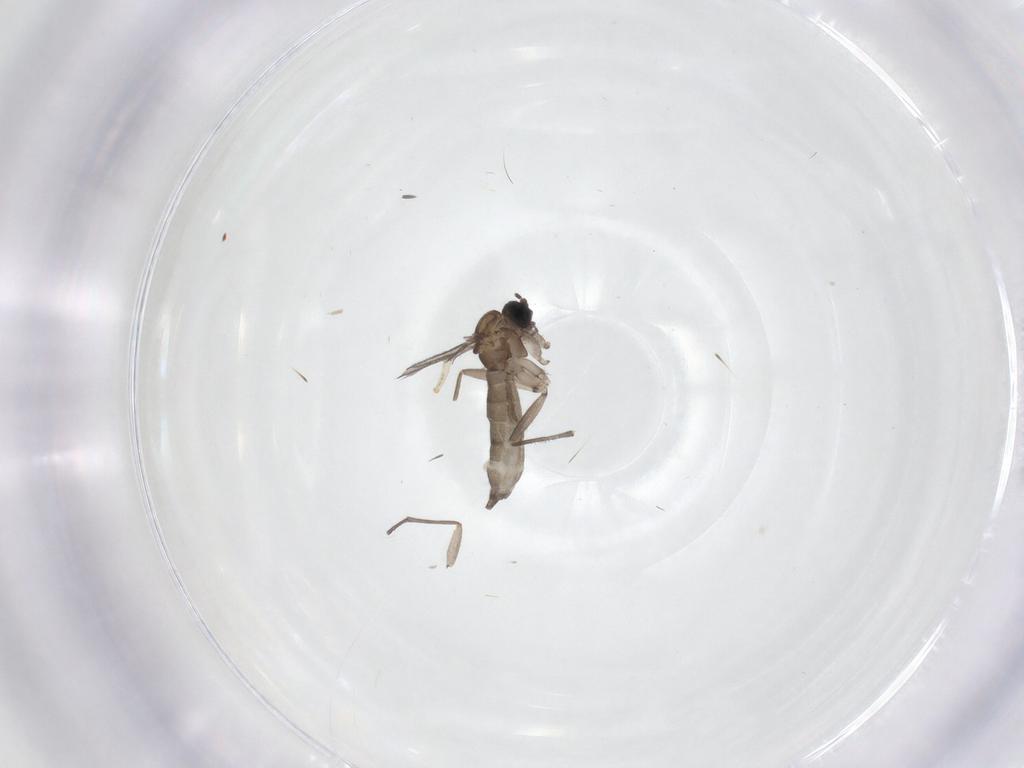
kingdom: Animalia
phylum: Arthropoda
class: Insecta
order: Diptera
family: Sciaridae
